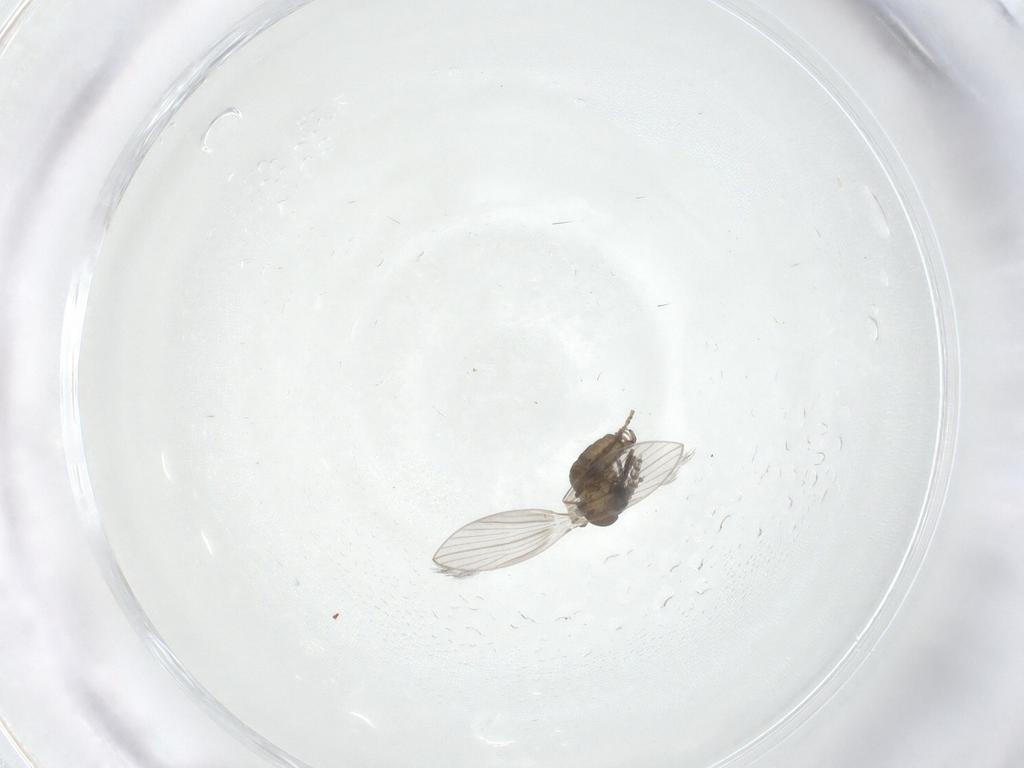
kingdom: Animalia
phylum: Arthropoda
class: Insecta
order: Diptera
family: Psychodidae
